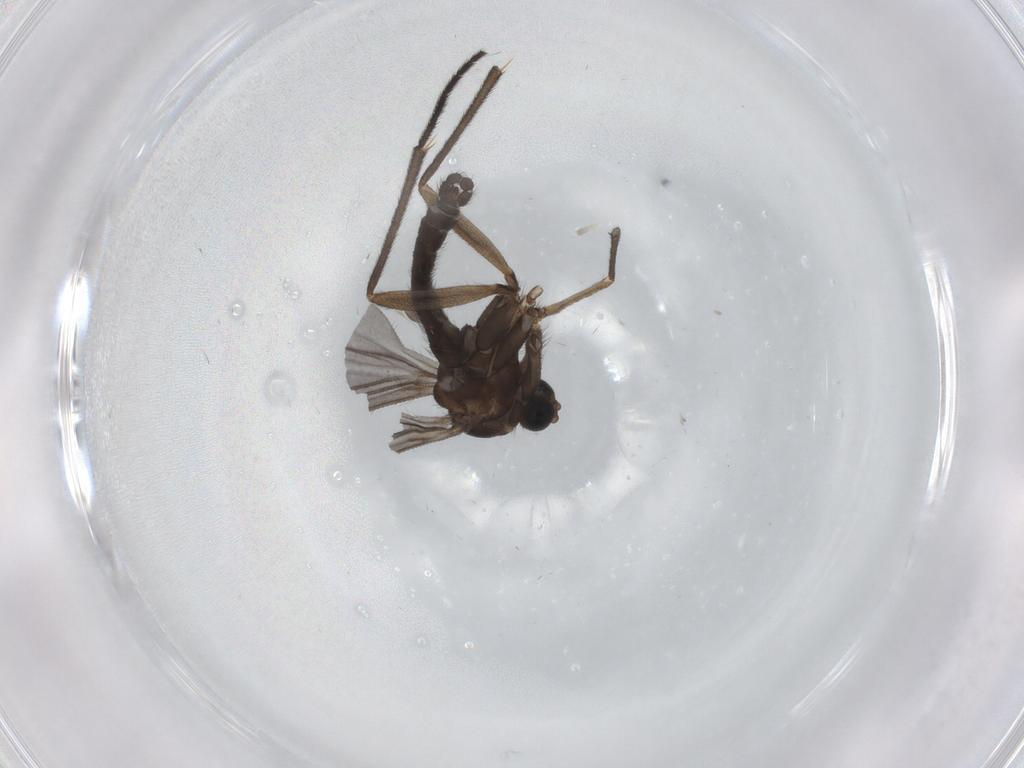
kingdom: Animalia
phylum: Arthropoda
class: Insecta
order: Diptera
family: Sciaridae
